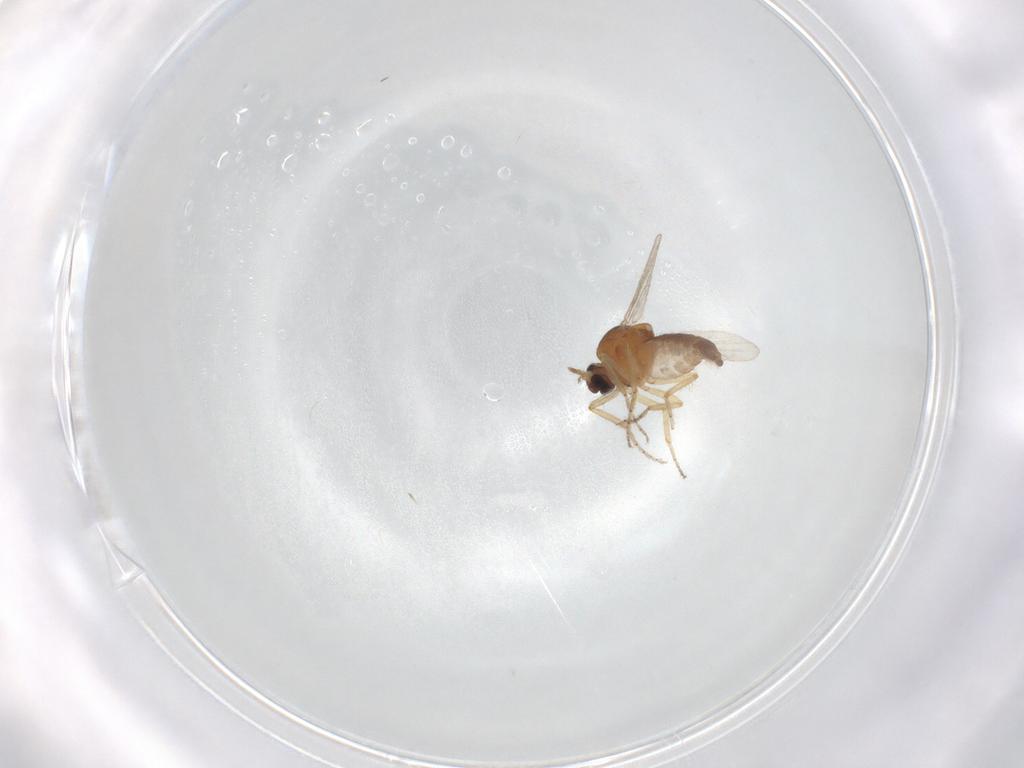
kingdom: Animalia
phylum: Arthropoda
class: Insecta
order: Diptera
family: Ceratopogonidae
